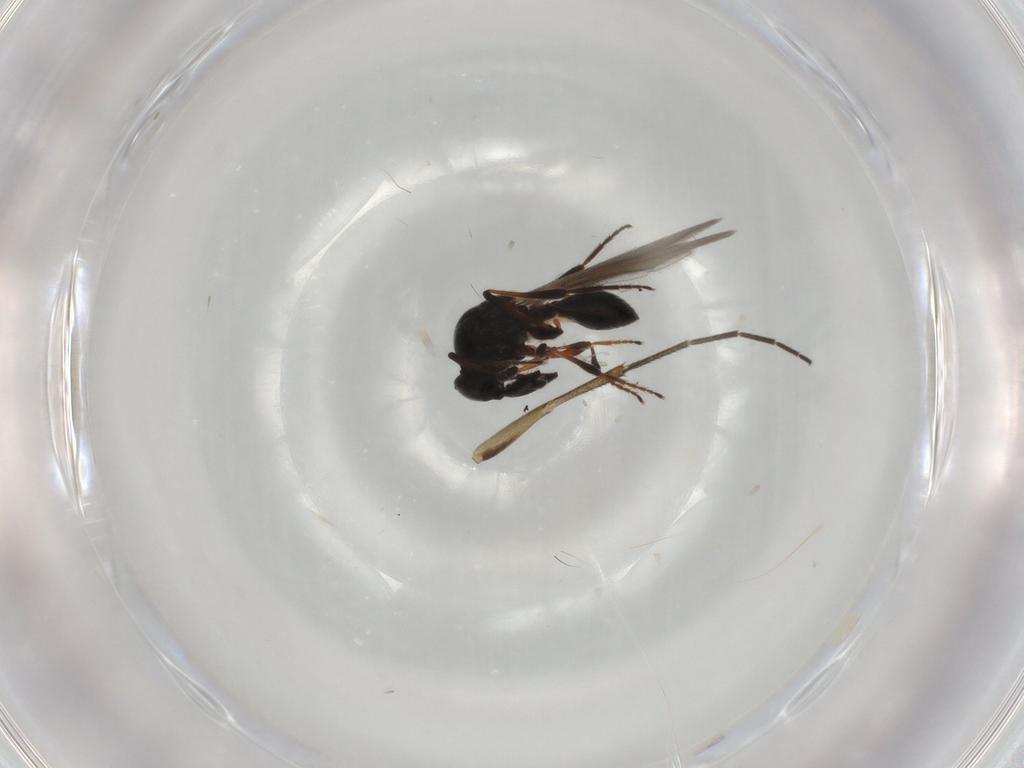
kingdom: Animalia
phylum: Arthropoda
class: Insecta
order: Hymenoptera
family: Platygastridae
